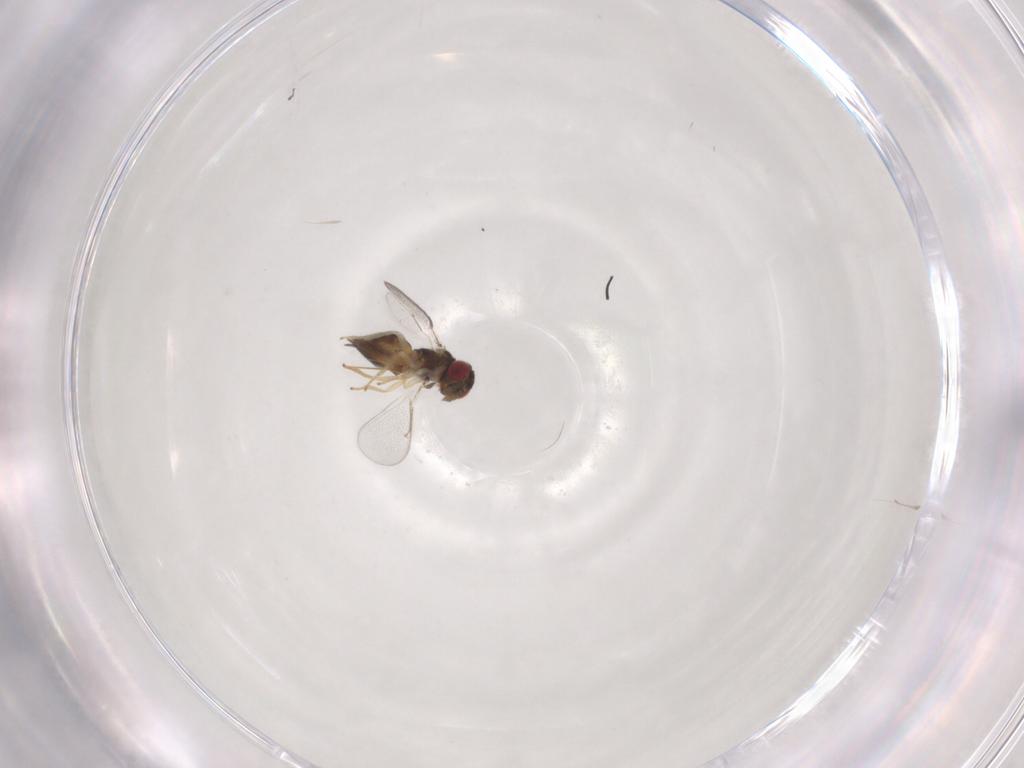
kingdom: Animalia
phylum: Arthropoda
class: Insecta
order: Hymenoptera
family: Eulophidae
